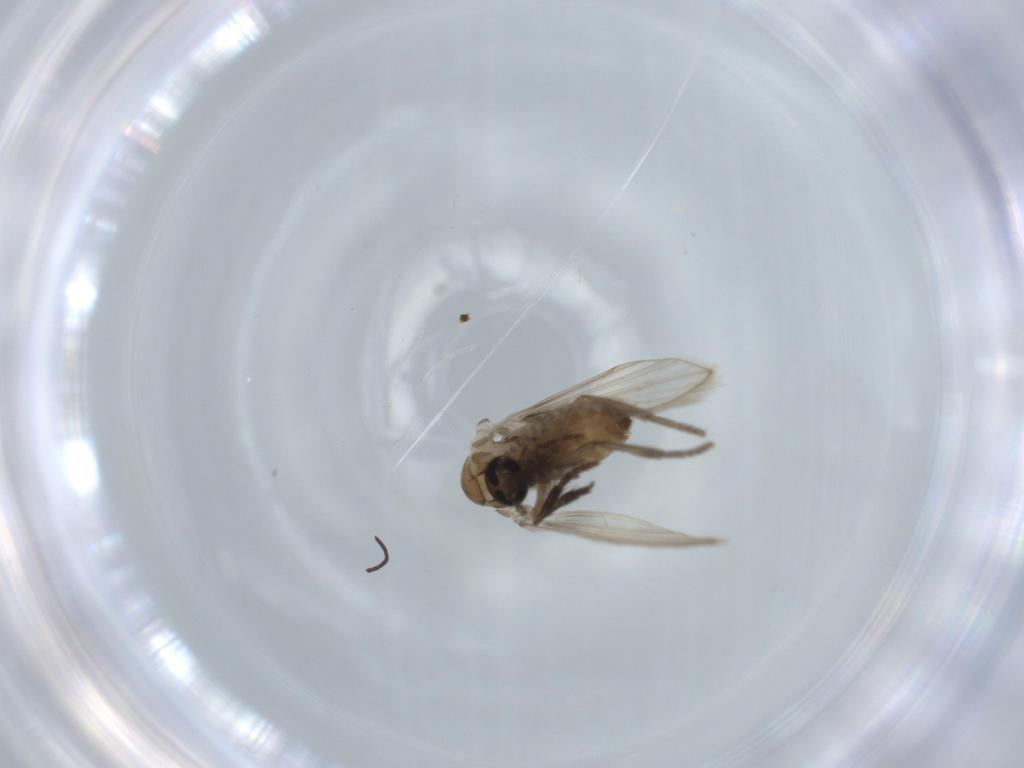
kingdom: Animalia
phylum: Arthropoda
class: Insecta
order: Diptera
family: Psychodidae
